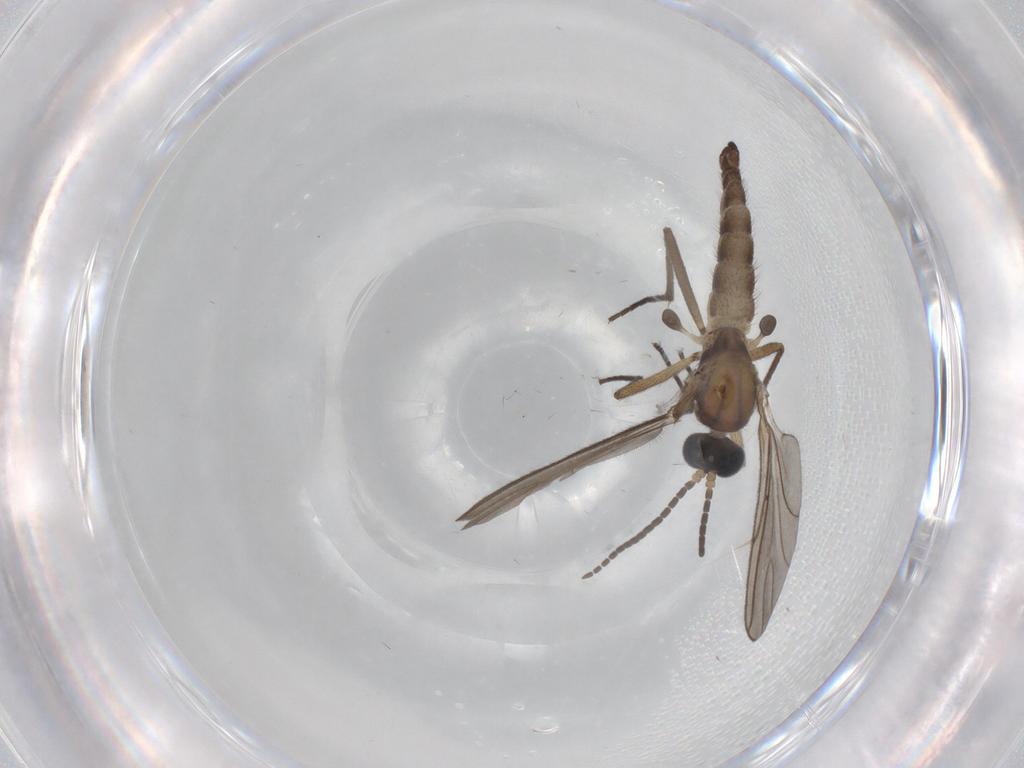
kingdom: Animalia
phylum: Arthropoda
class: Insecta
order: Diptera
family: Sciaridae
